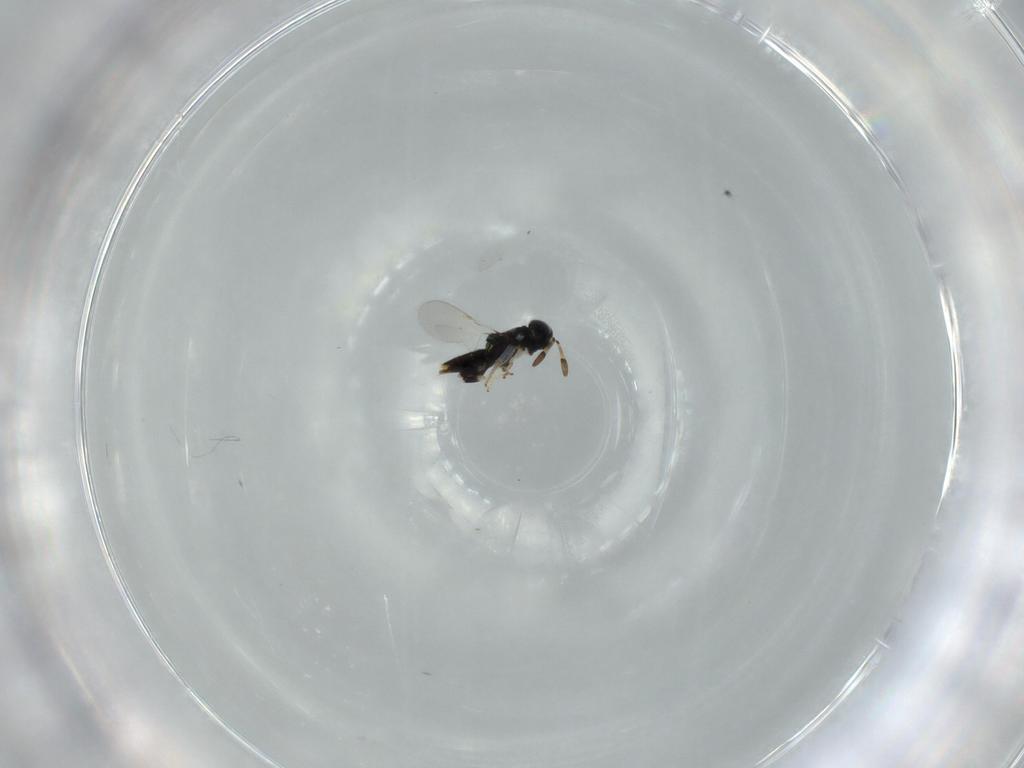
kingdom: Animalia
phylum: Arthropoda
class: Insecta
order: Hymenoptera
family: Encyrtidae
